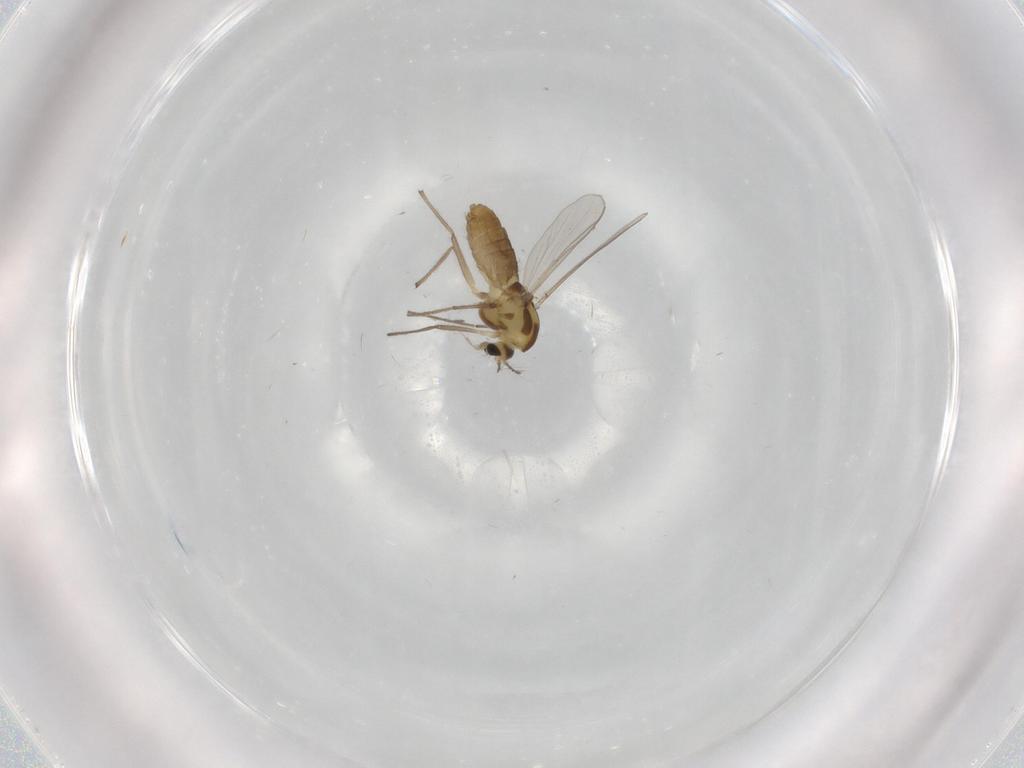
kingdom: Animalia
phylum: Arthropoda
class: Insecta
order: Diptera
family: Chironomidae
